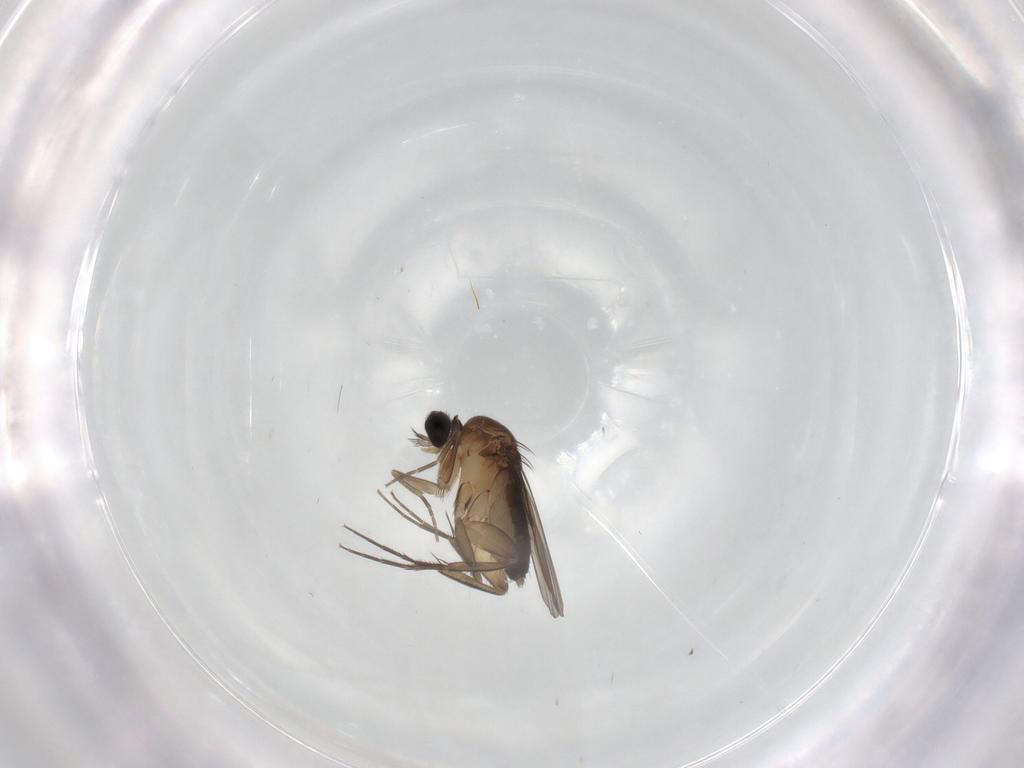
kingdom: Animalia
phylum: Arthropoda
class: Insecta
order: Diptera
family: Phoridae
